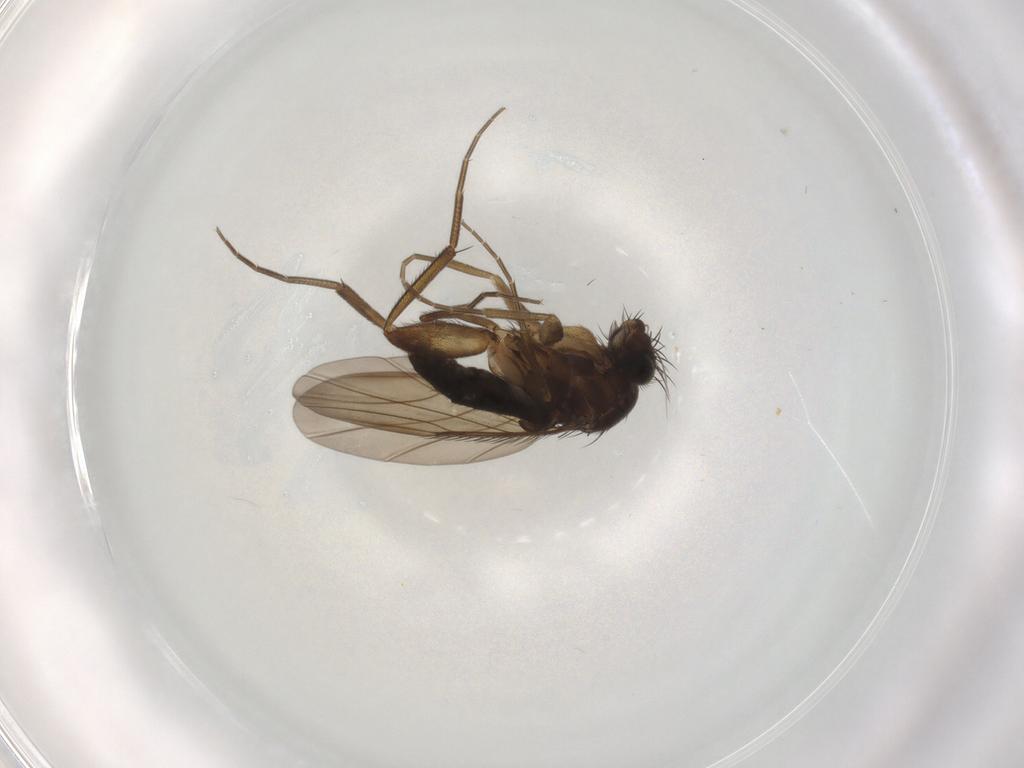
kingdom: Animalia
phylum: Arthropoda
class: Insecta
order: Diptera
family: Phoridae
